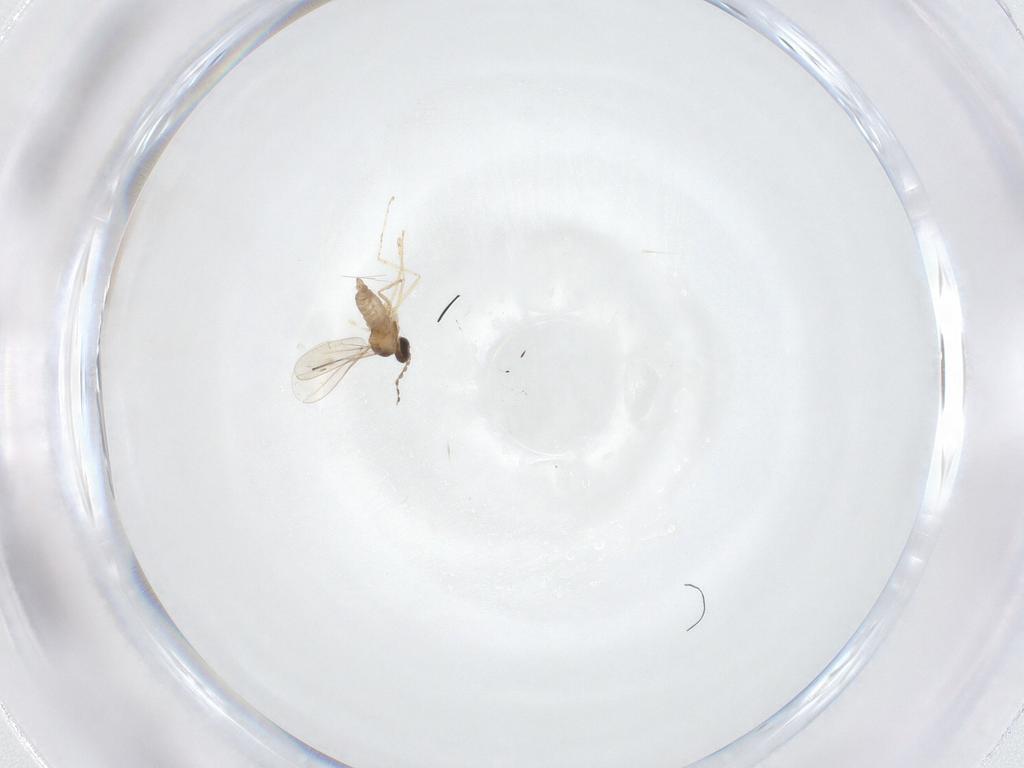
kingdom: Animalia
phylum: Arthropoda
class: Insecta
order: Diptera
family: Cecidomyiidae
